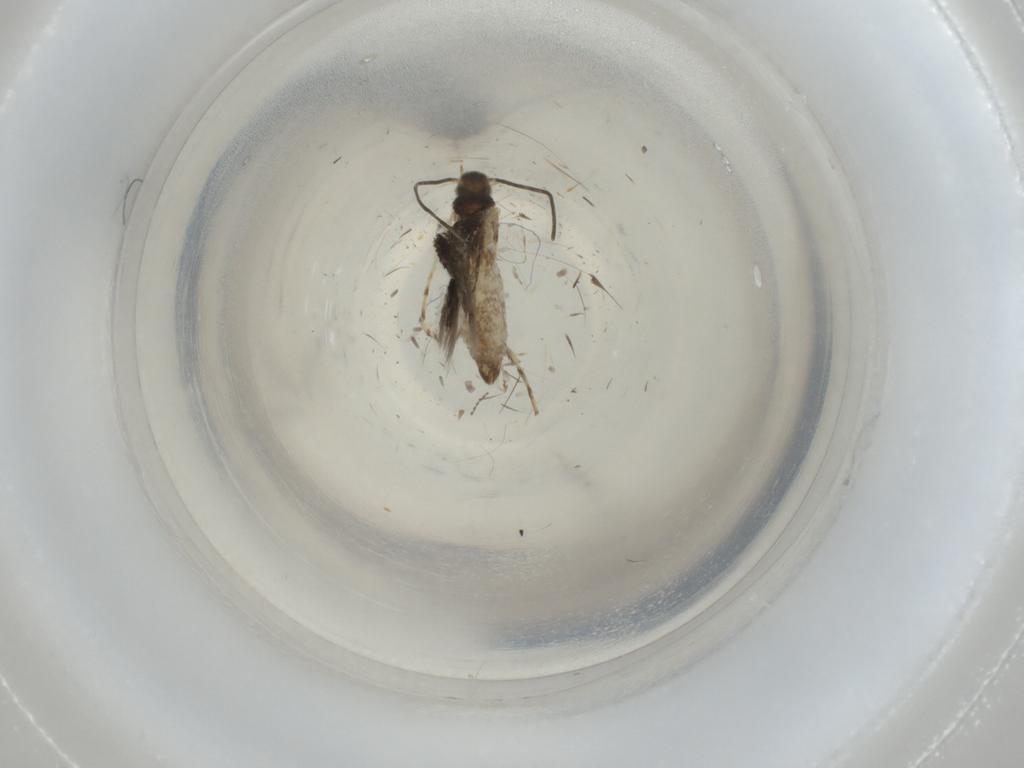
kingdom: Animalia
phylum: Arthropoda
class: Insecta
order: Lepidoptera
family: Gracillariidae
